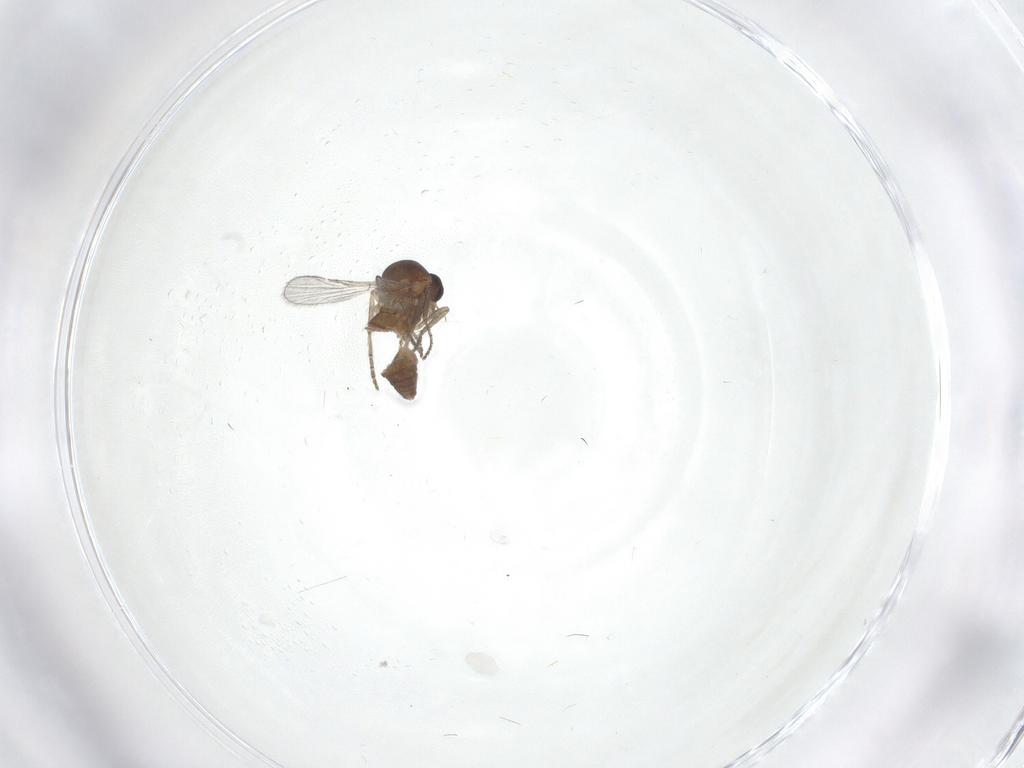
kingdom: Animalia
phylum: Arthropoda
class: Insecta
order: Diptera
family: Cecidomyiidae
